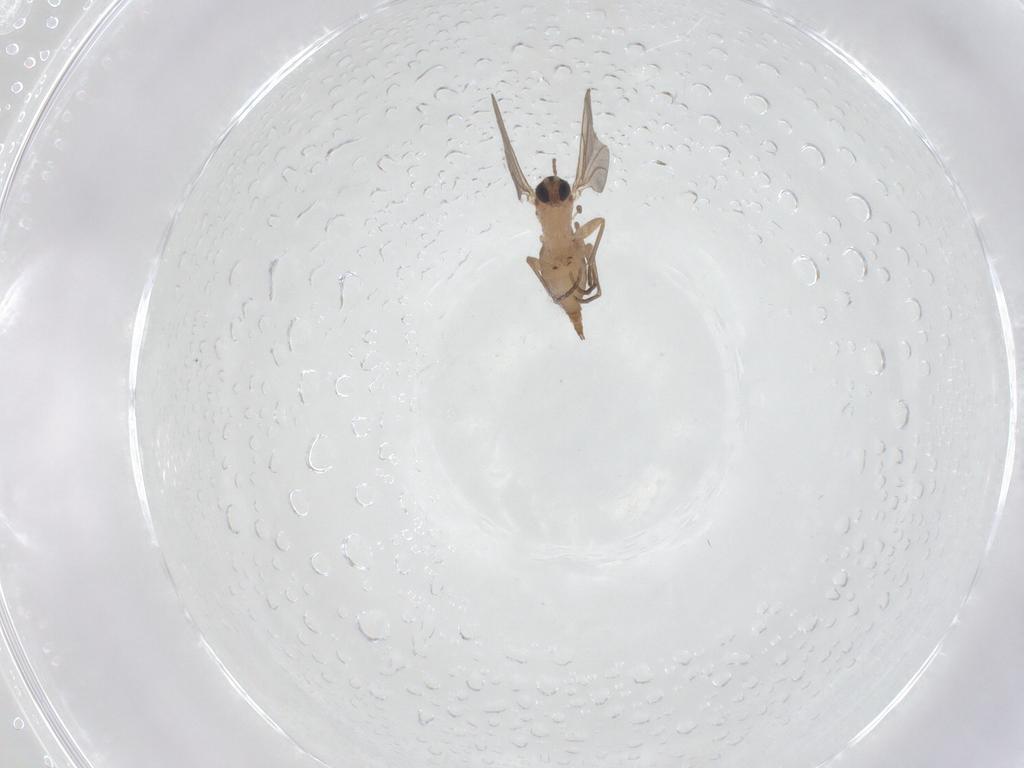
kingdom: Animalia
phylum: Arthropoda
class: Insecta
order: Diptera
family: Sciaridae
